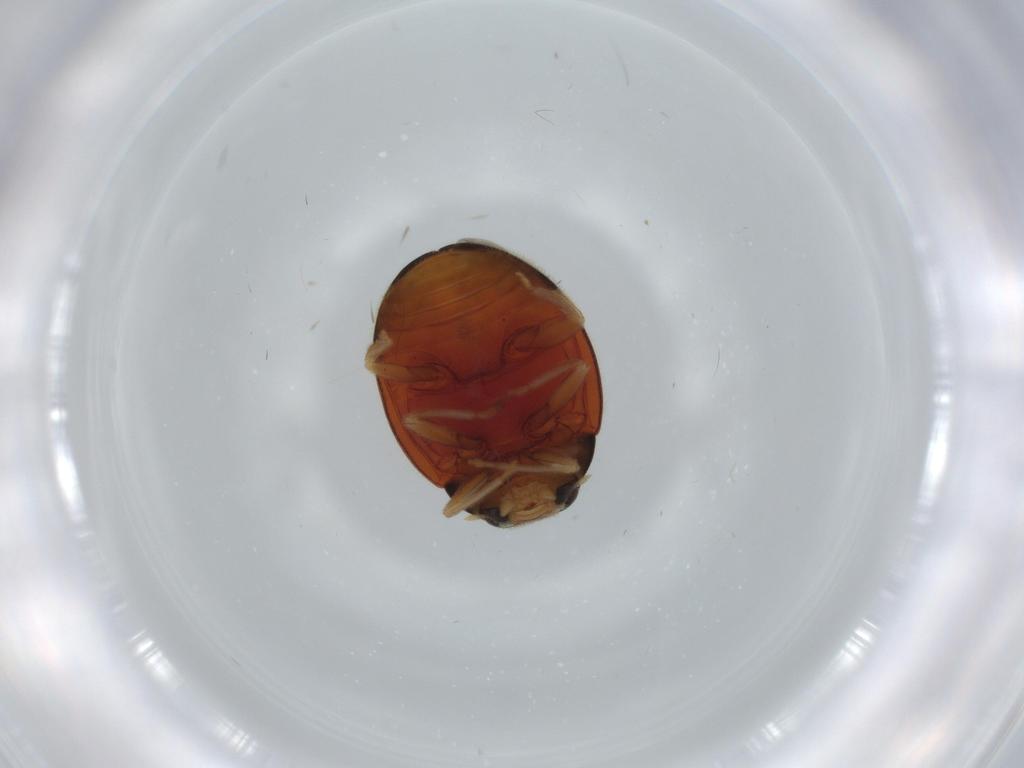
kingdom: Animalia
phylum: Arthropoda
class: Insecta
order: Coleoptera
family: Coccinellidae
